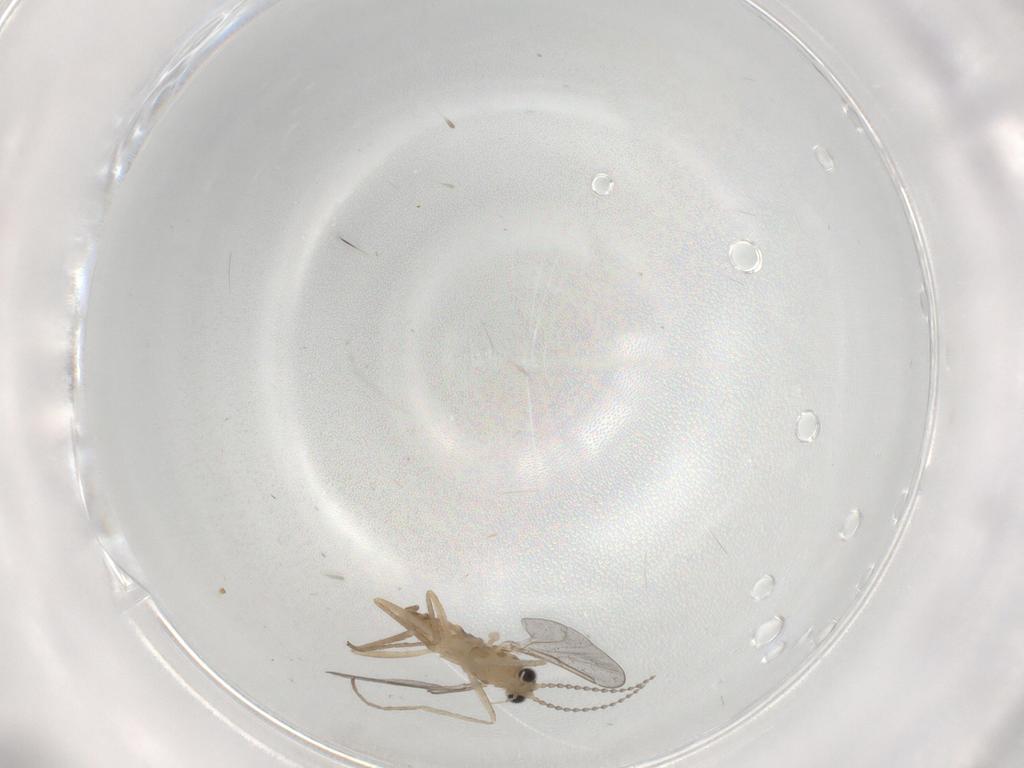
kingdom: Animalia
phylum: Arthropoda
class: Insecta
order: Diptera
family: Cecidomyiidae
